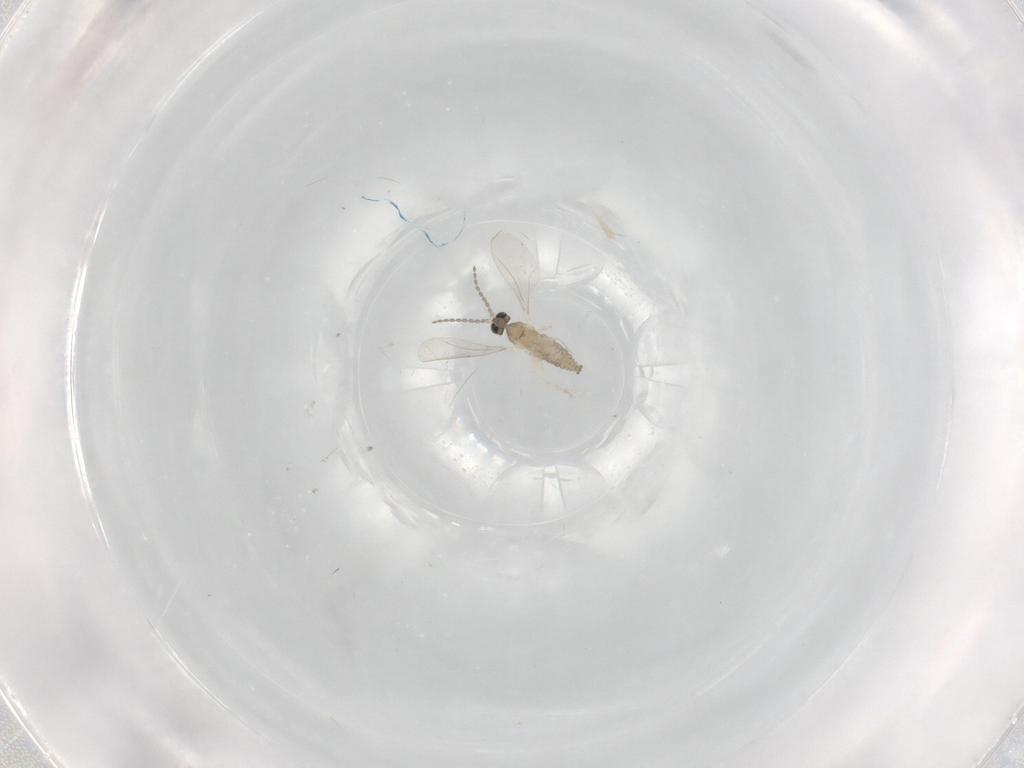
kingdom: Animalia
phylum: Arthropoda
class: Insecta
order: Diptera
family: Cecidomyiidae
